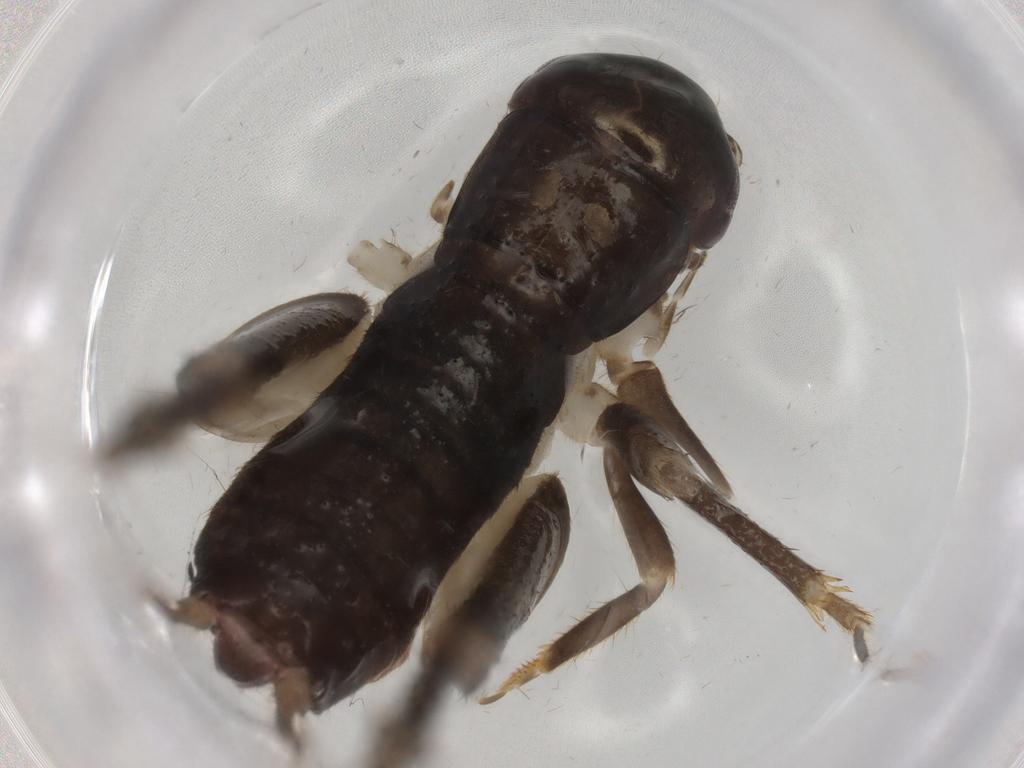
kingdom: Animalia
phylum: Arthropoda
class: Insecta
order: Orthoptera
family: Gryllidae
